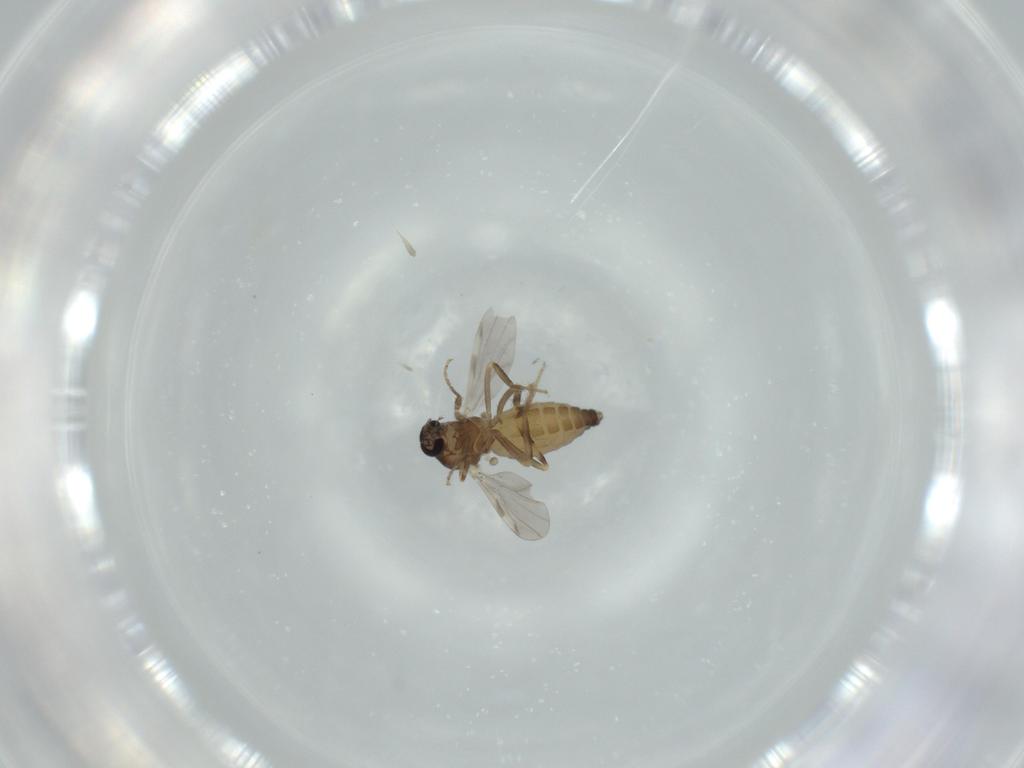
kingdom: Animalia
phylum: Arthropoda
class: Insecta
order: Diptera
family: Ceratopogonidae
